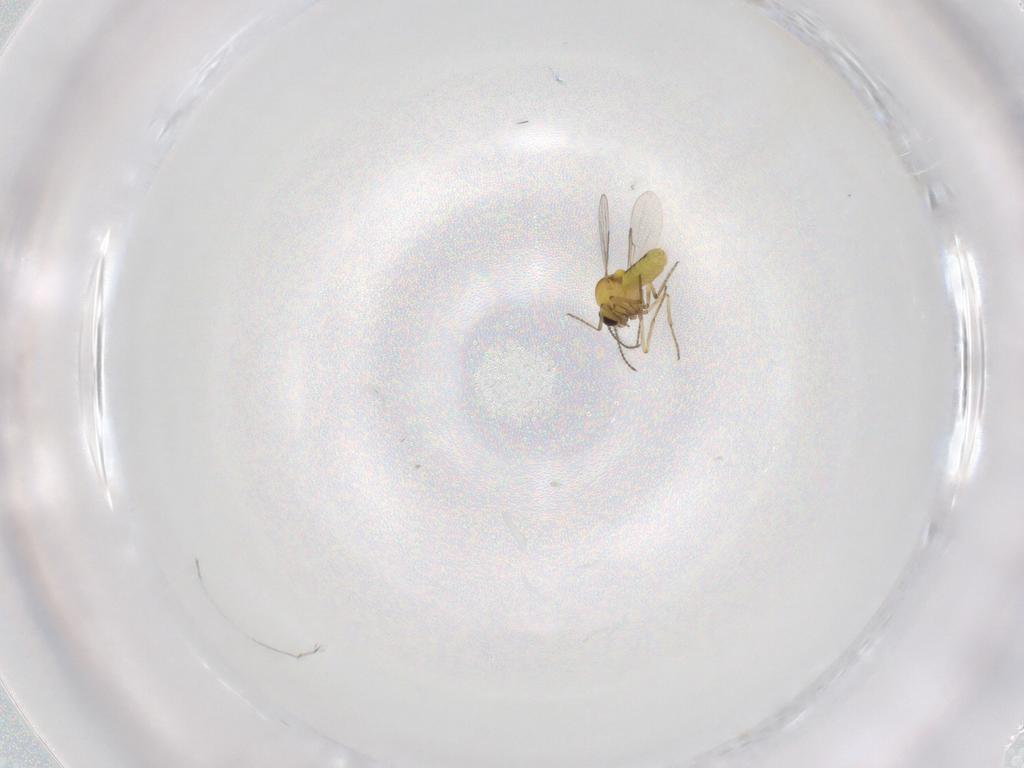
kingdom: Animalia
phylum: Arthropoda
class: Insecta
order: Diptera
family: Ceratopogonidae
